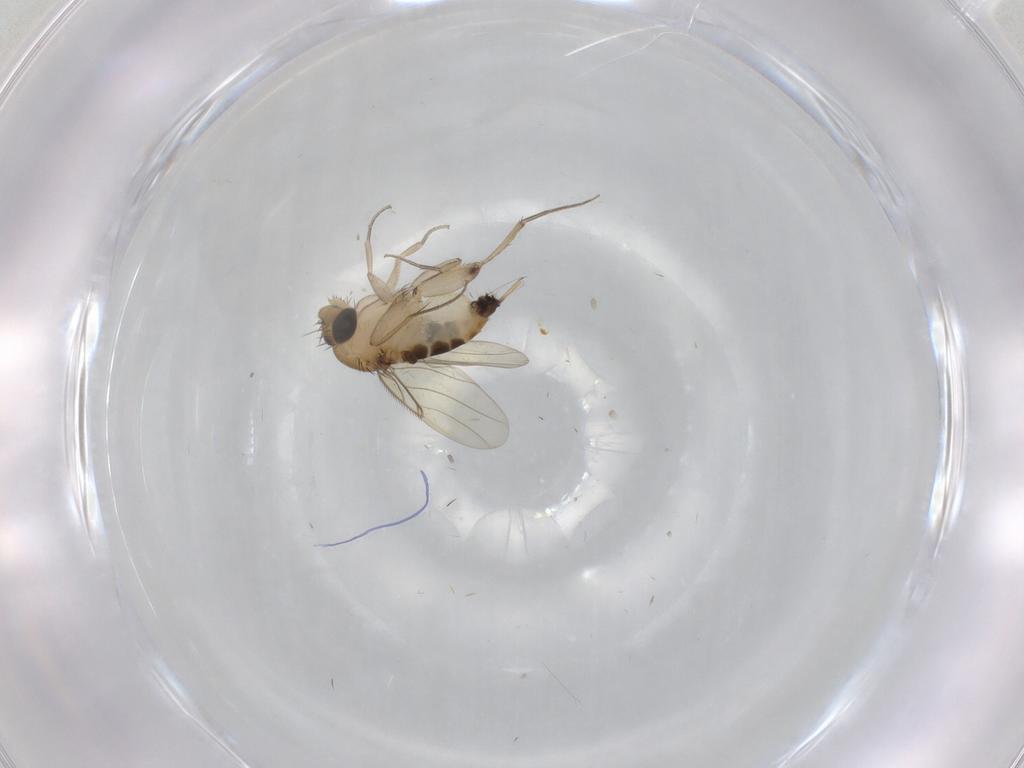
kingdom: Animalia
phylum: Arthropoda
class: Insecta
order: Diptera
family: Phoridae
